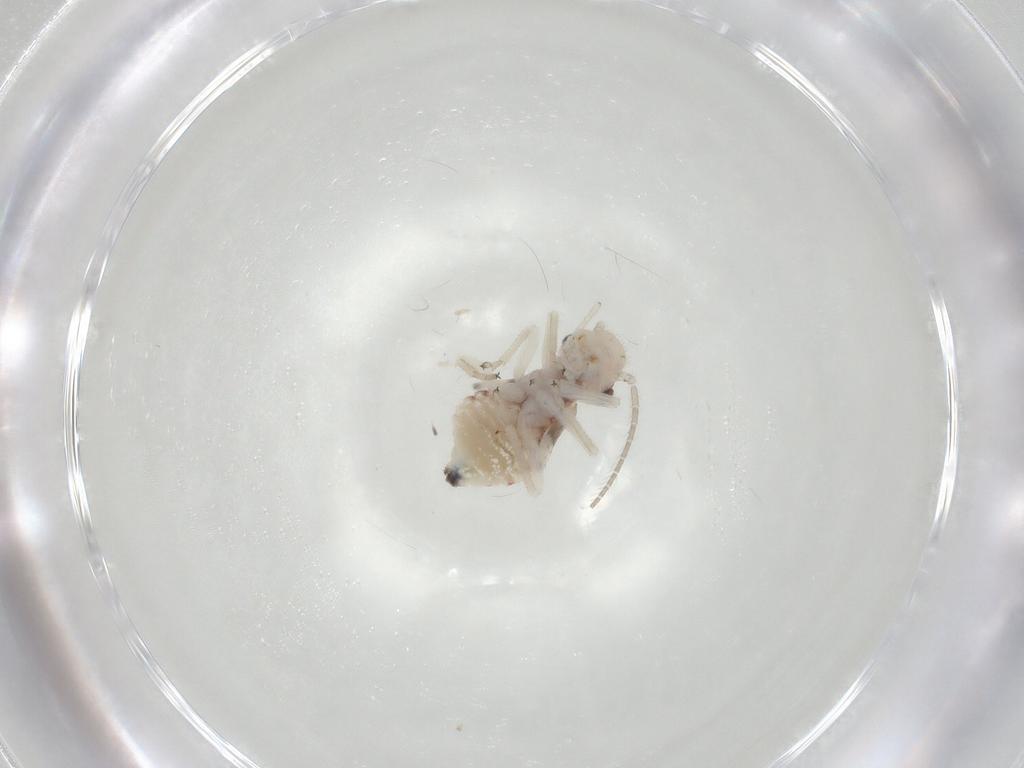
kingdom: Animalia
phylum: Arthropoda
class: Insecta
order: Psocodea
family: Amphipsocidae
